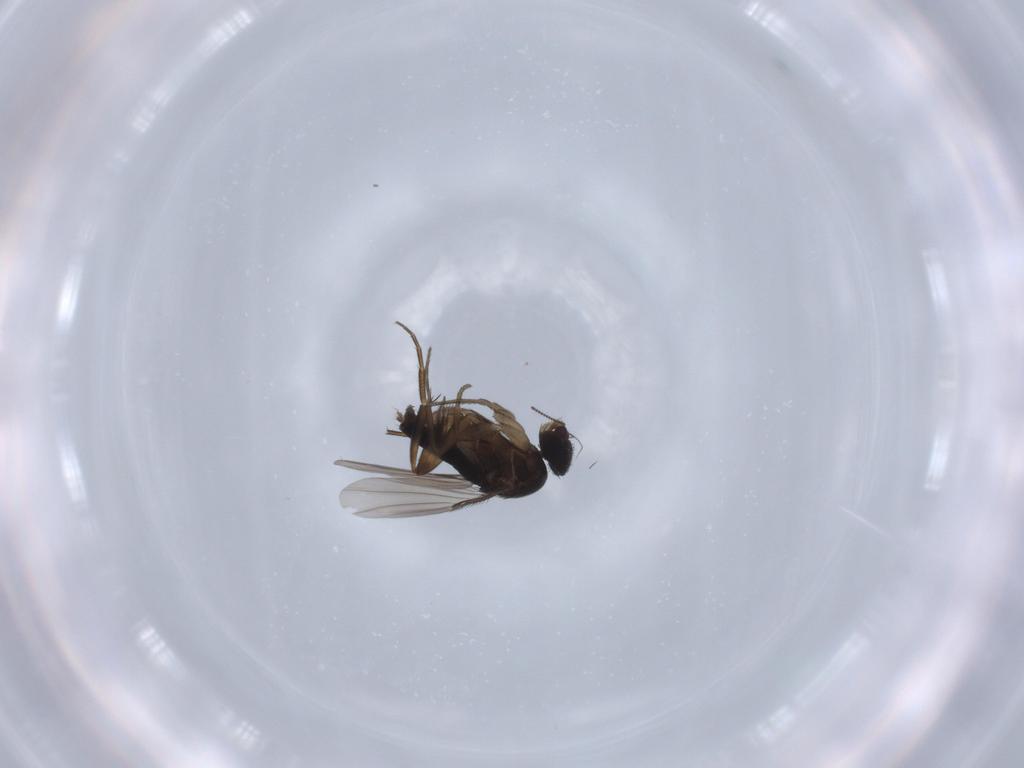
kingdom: Animalia
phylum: Arthropoda
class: Insecta
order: Diptera
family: Phoridae
